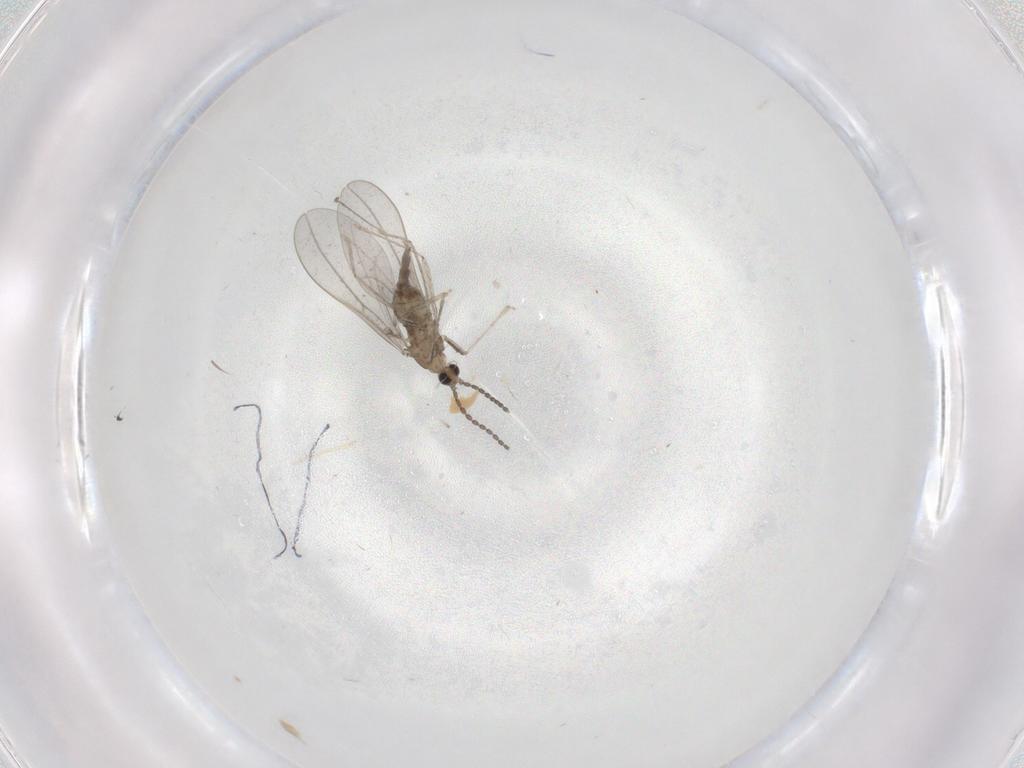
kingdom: Animalia
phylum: Arthropoda
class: Insecta
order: Diptera
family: Cecidomyiidae
